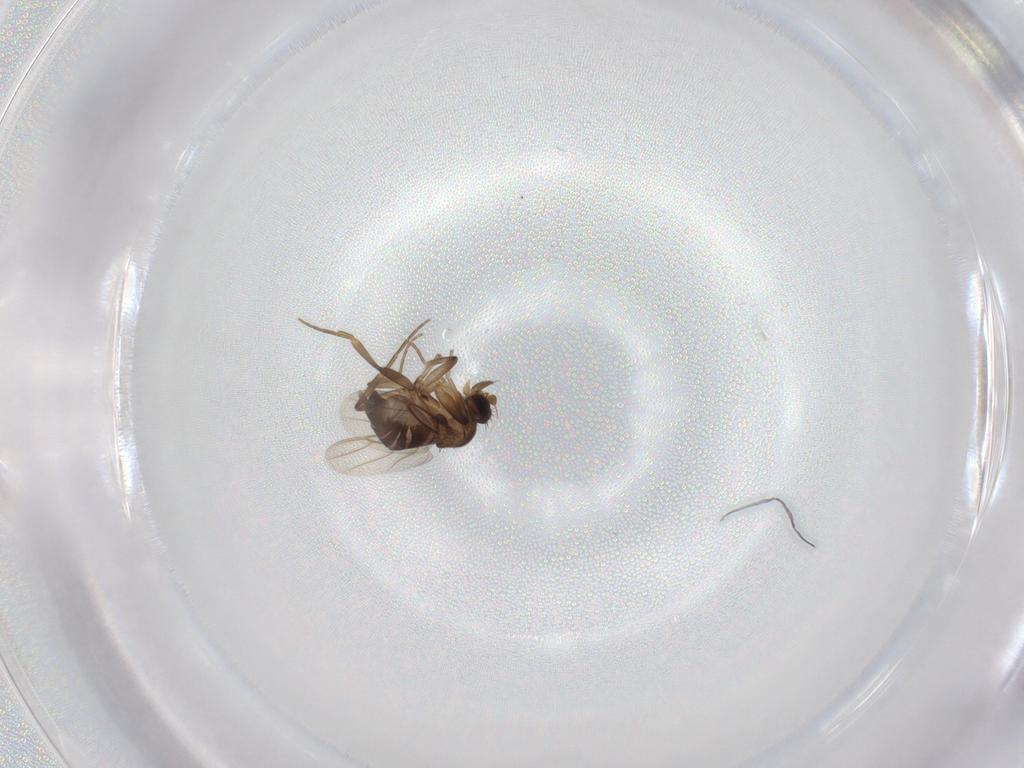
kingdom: Animalia
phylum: Arthropoda
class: Insecta
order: Diptera
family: Phoridae
